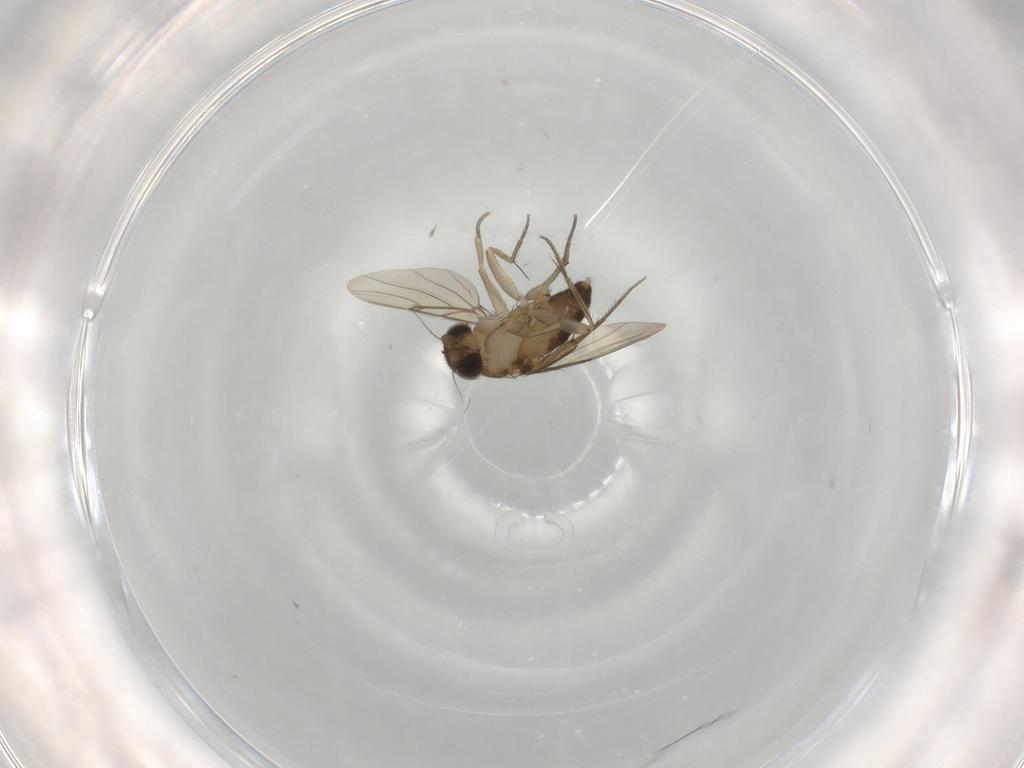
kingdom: Animalia
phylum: Arthropoda
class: Insecta
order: Diptera
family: Phoridae
